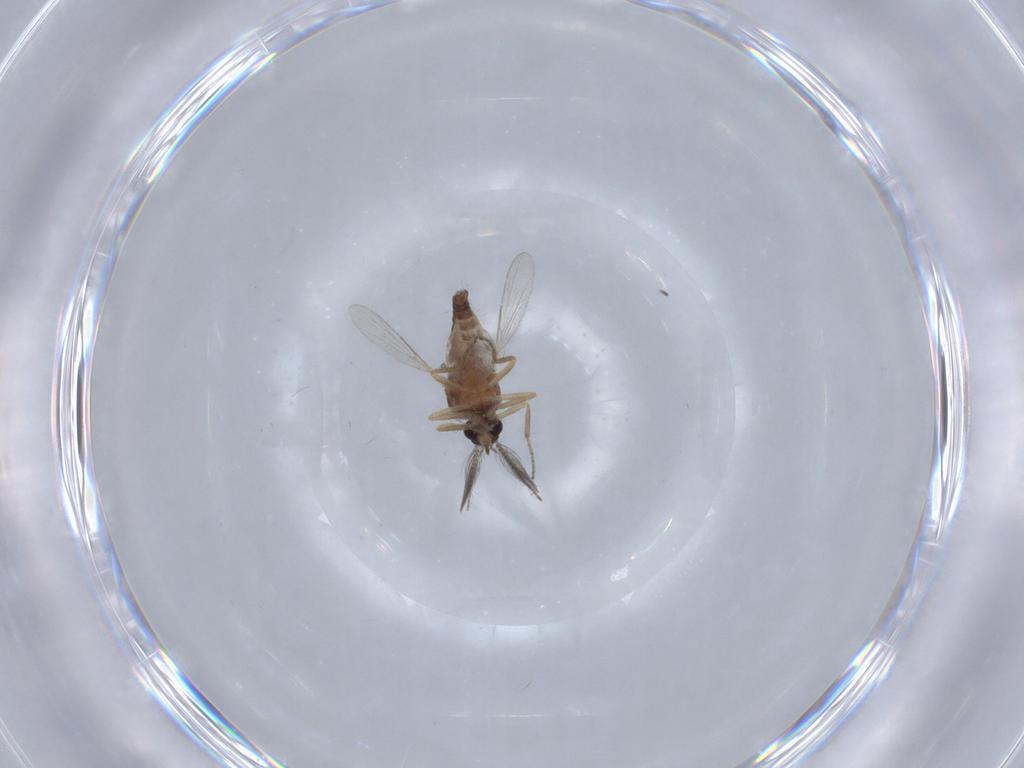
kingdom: Animalia
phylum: Arthropoda
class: Insecta
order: Diptera
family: Ceratopogonidae
